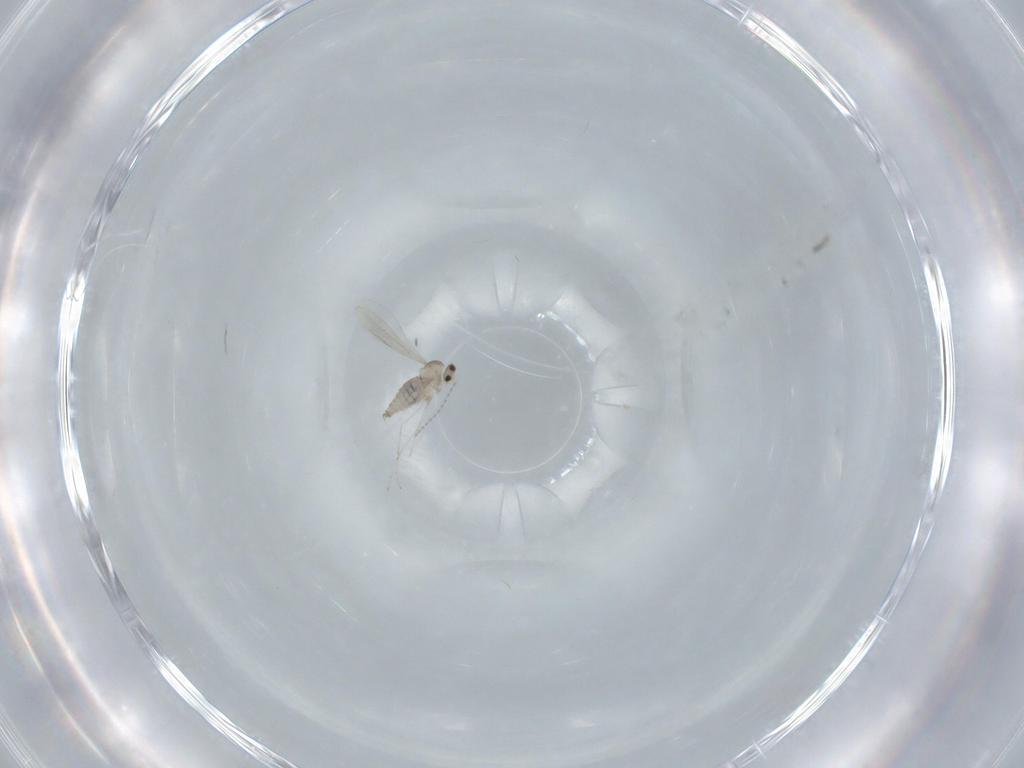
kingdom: Animalia
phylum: Arthropoda
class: Insecta
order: Diptera
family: Cecidomyiidae
